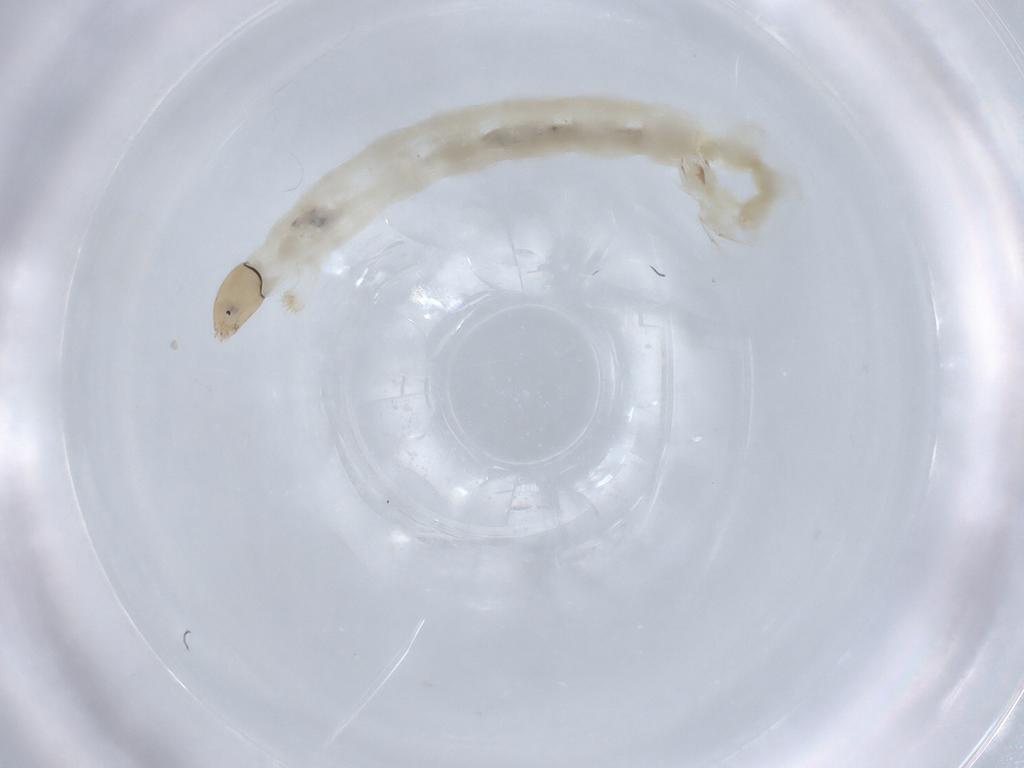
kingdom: Animalia
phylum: Arthropoda
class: Insecta
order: Diptera
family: Chironomidae
